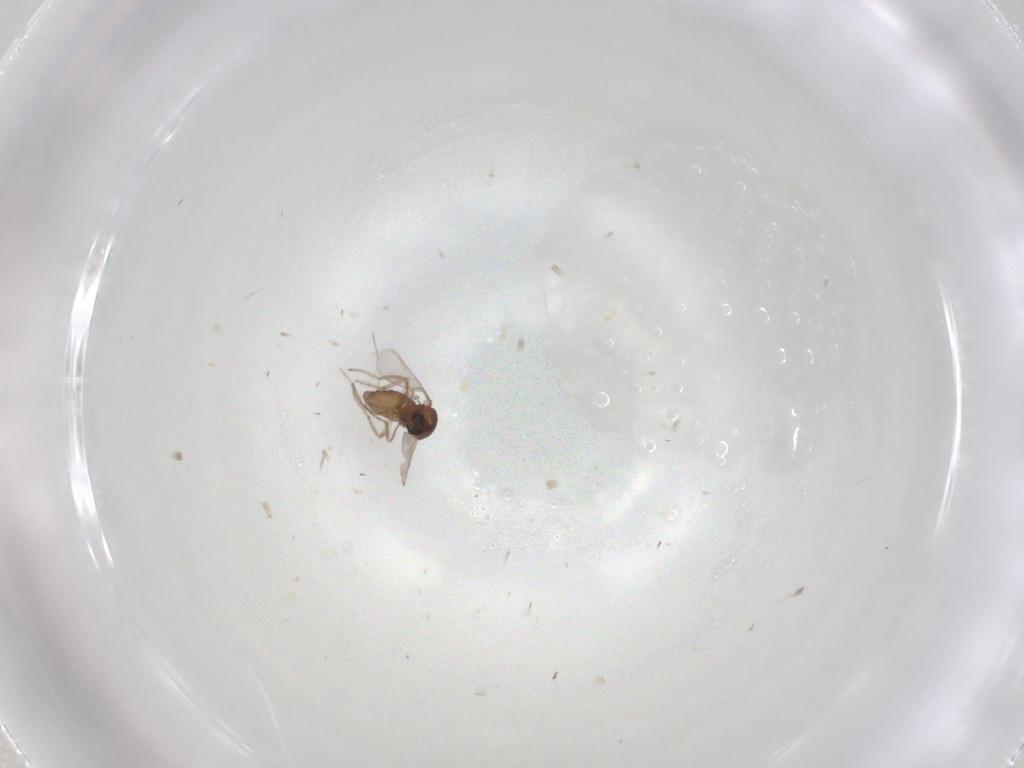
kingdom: Animalia
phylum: Arthropoda
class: Insecta
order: Diptera
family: Ceratopogonidae
